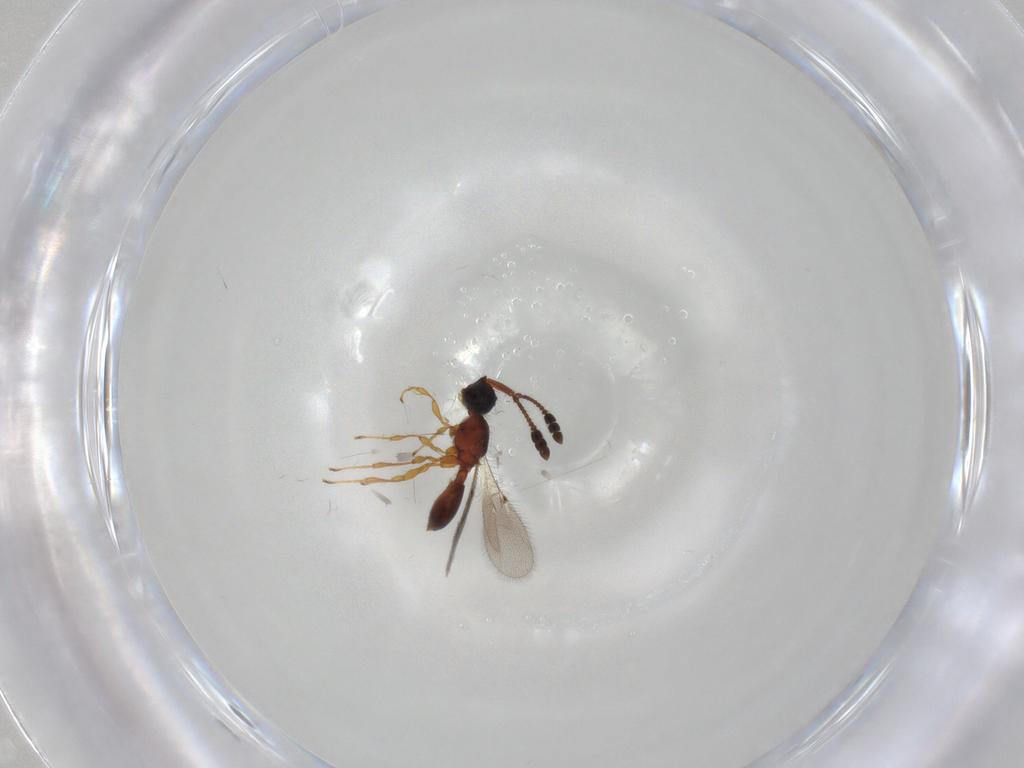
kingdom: Animalia
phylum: Arthropoda
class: Insecta
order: Hymenoptera
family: Diapriidae
